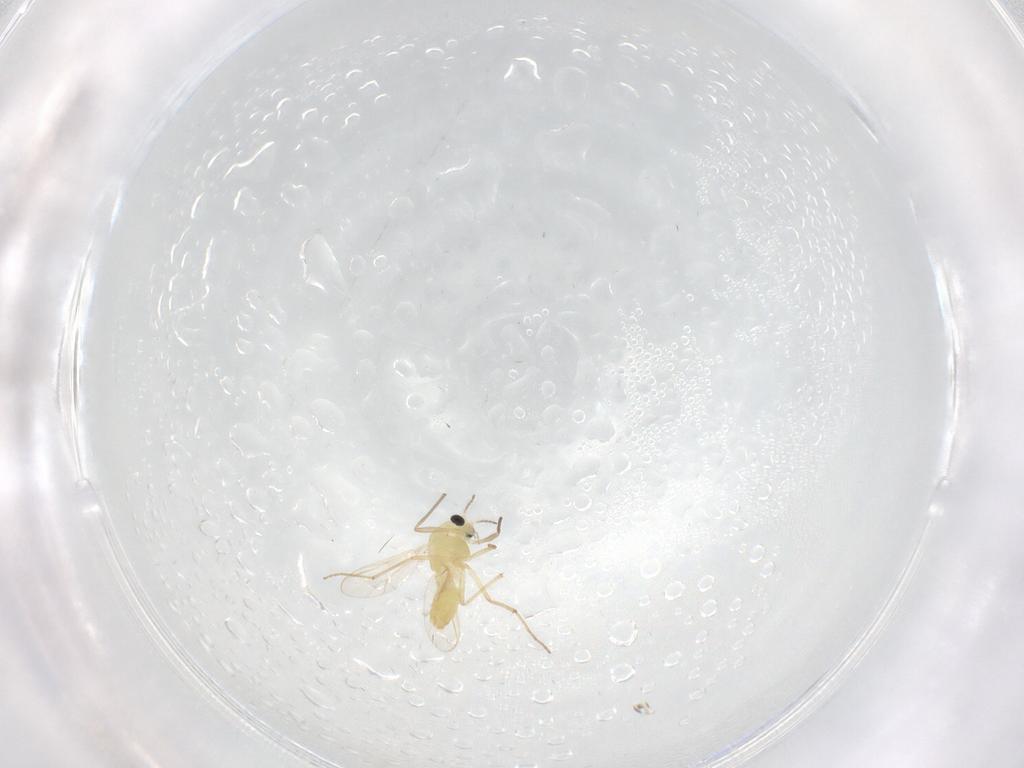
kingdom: Animalia
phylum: Arthropoda
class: Insecta
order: Diptera
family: Chironomidae
